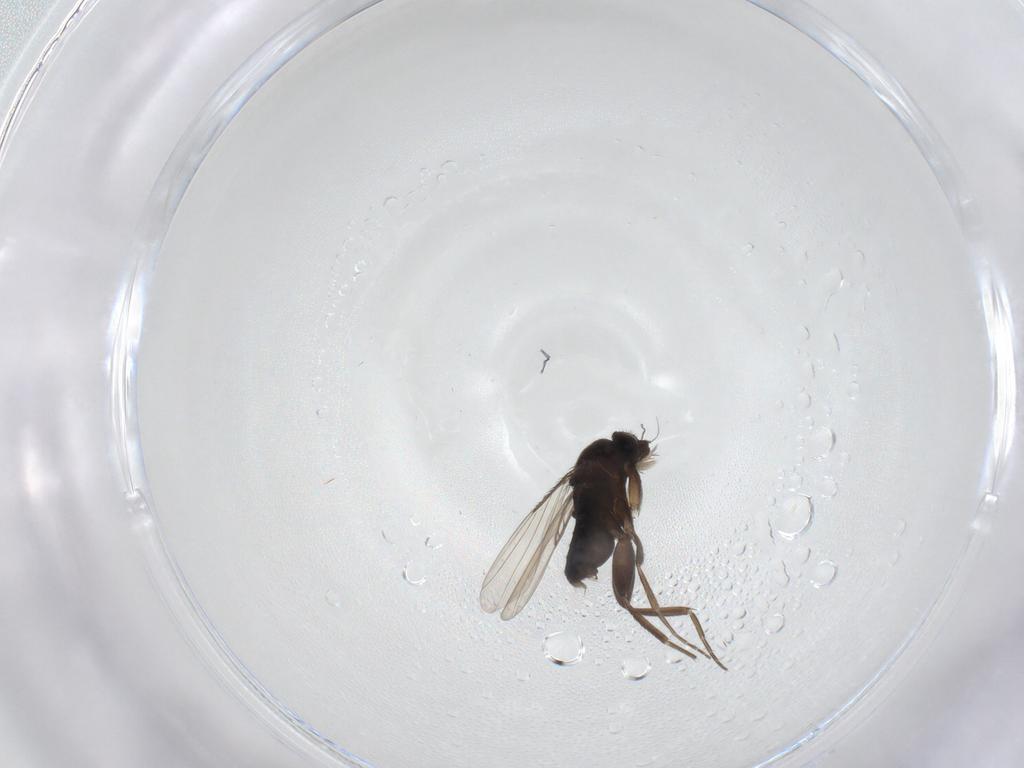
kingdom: Animalia
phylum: Arthropoda
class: Insecta
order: Diptera
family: Phoridae
